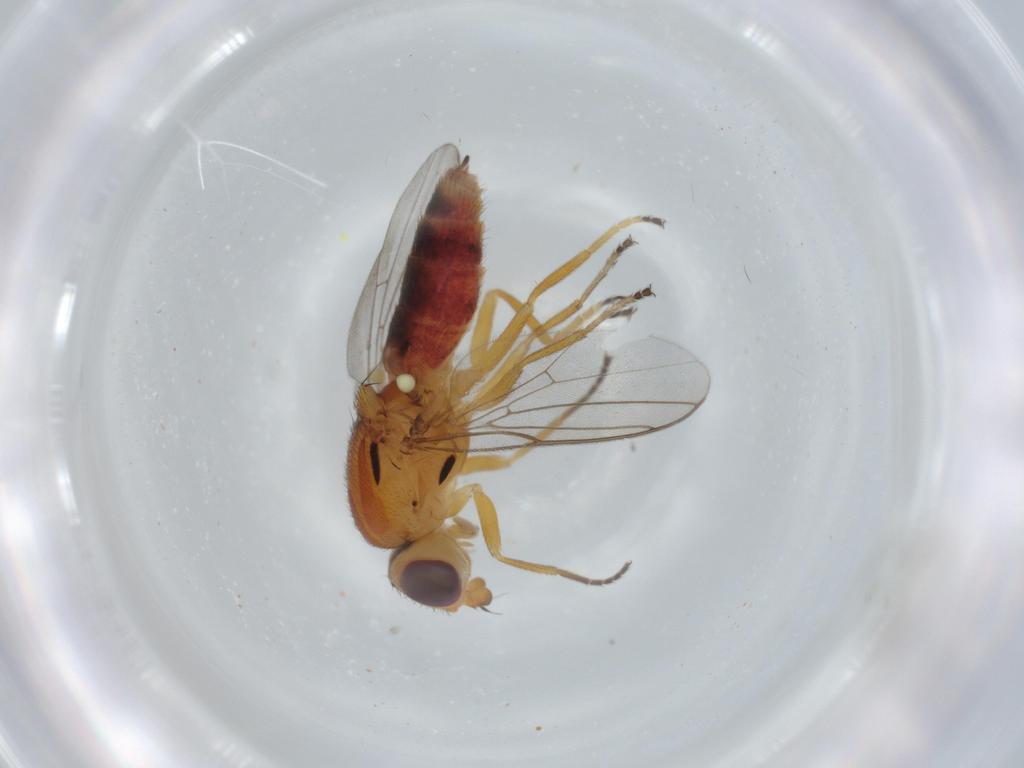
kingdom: Animalia
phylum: Arthropoda
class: Insecta
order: Diptera
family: Chloropidae
